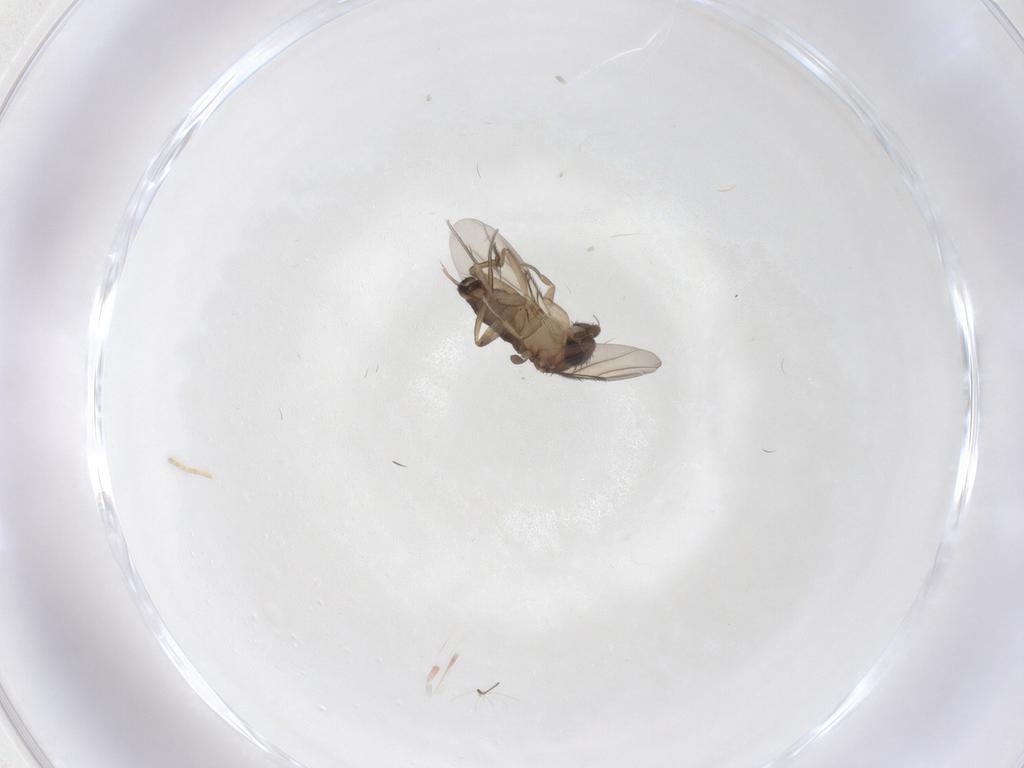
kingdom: Animalia
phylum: Arthropoda
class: Insecta
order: Diptera
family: Phoridae
